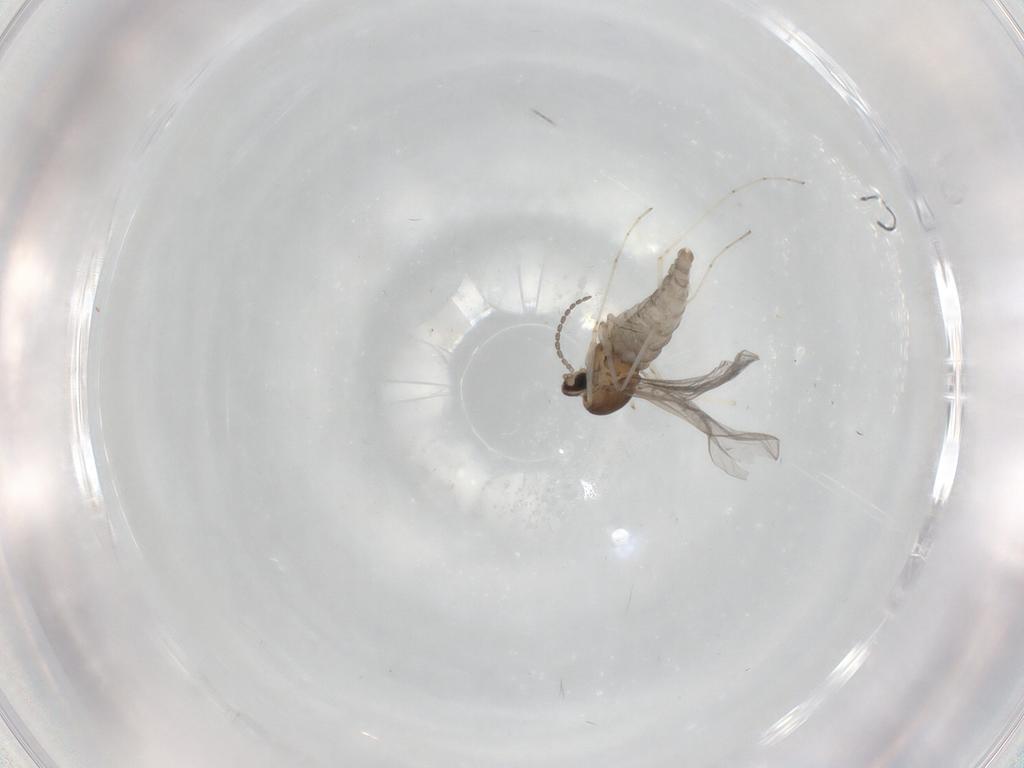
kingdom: Animalia
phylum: Arthropoda
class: Insecta
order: Diptera
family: Cecidomyiidae
